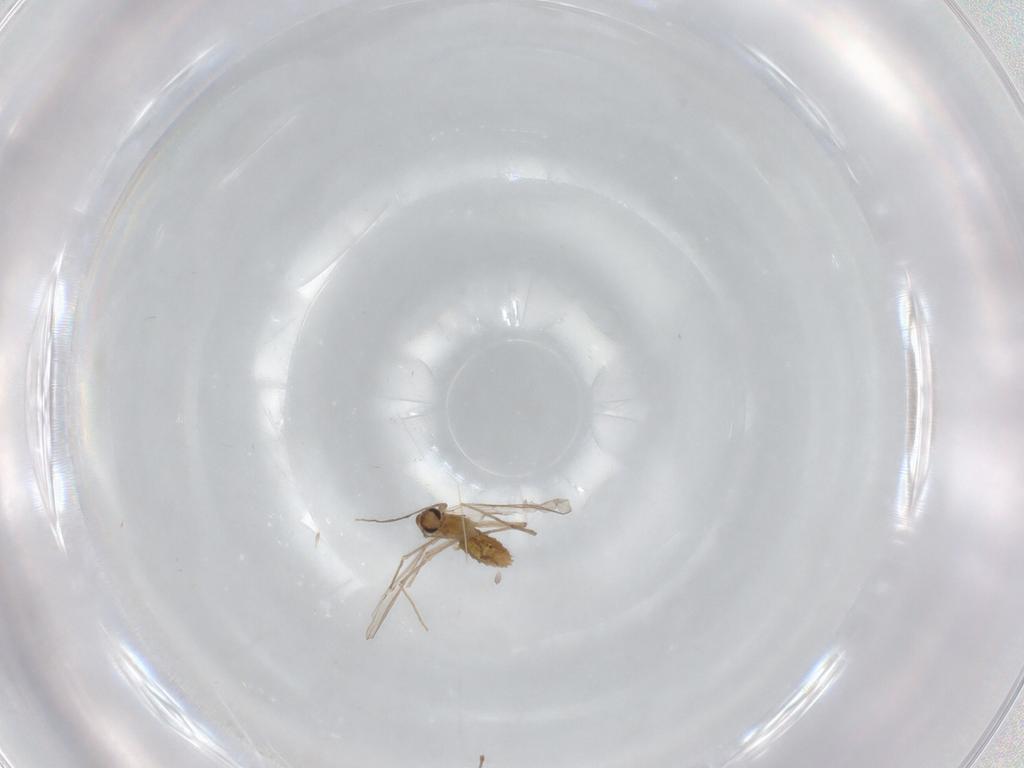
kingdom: Animalia
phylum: Arthropoda
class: Insecta
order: Diptera
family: Chironomidae
